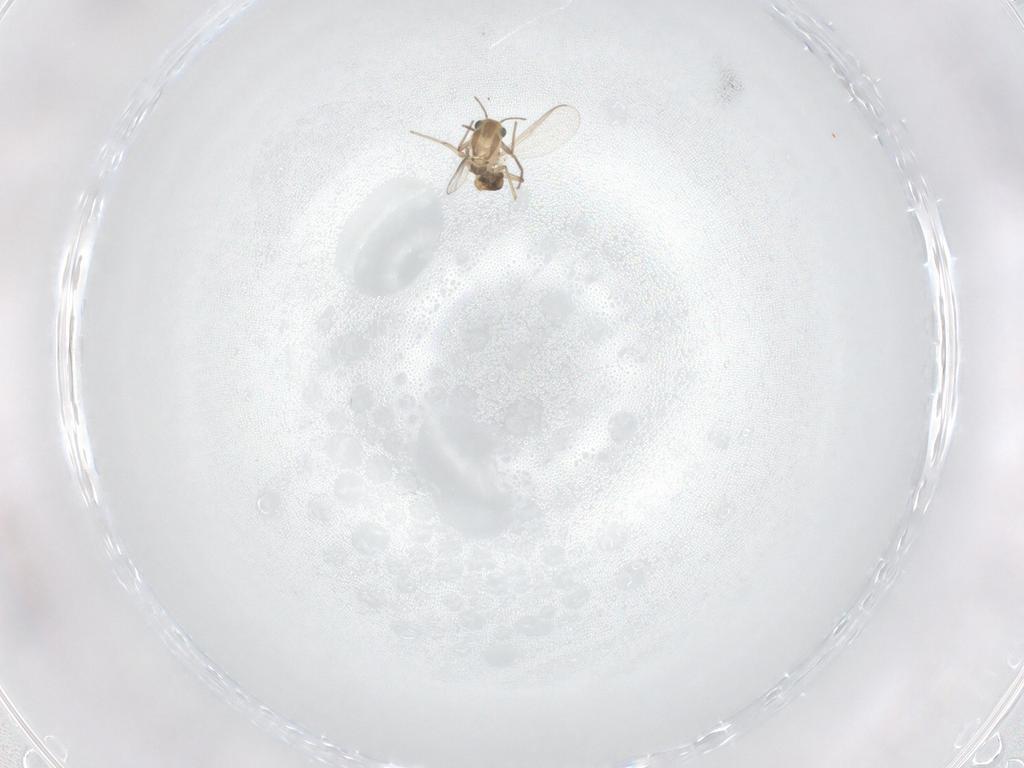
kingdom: Animalia
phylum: Arthropoda
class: Insecta
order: Diptera
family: Chironomidae
